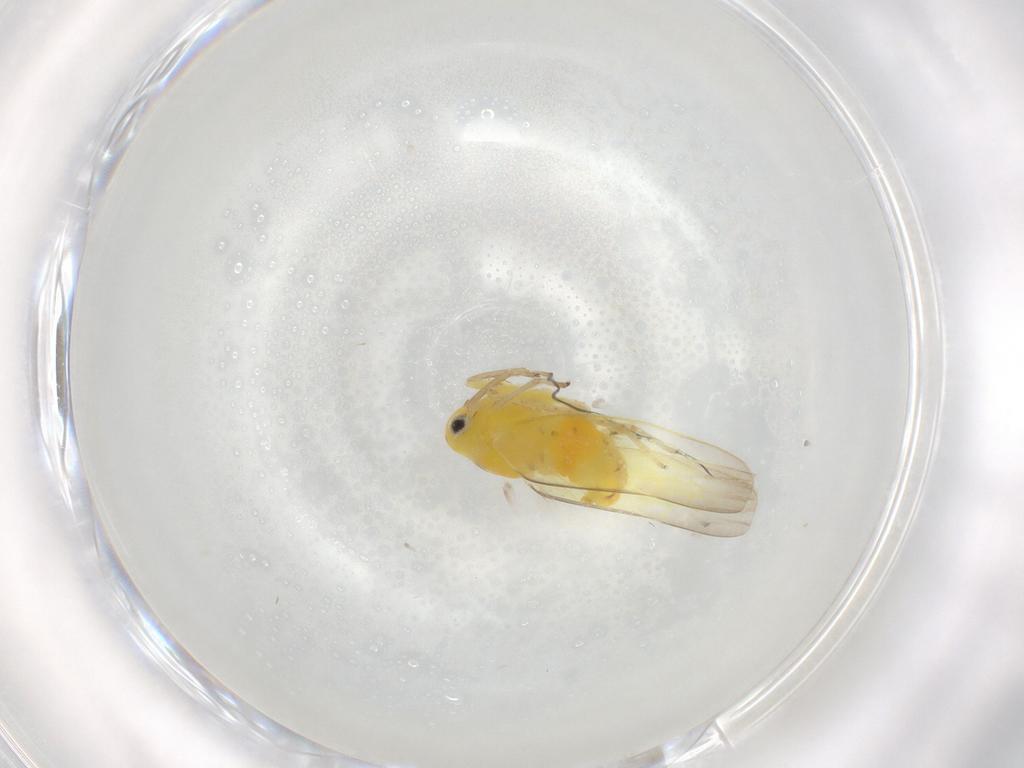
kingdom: Animalia
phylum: Arthropoda
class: Insecta
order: Hemiptera
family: Cicadellidae
